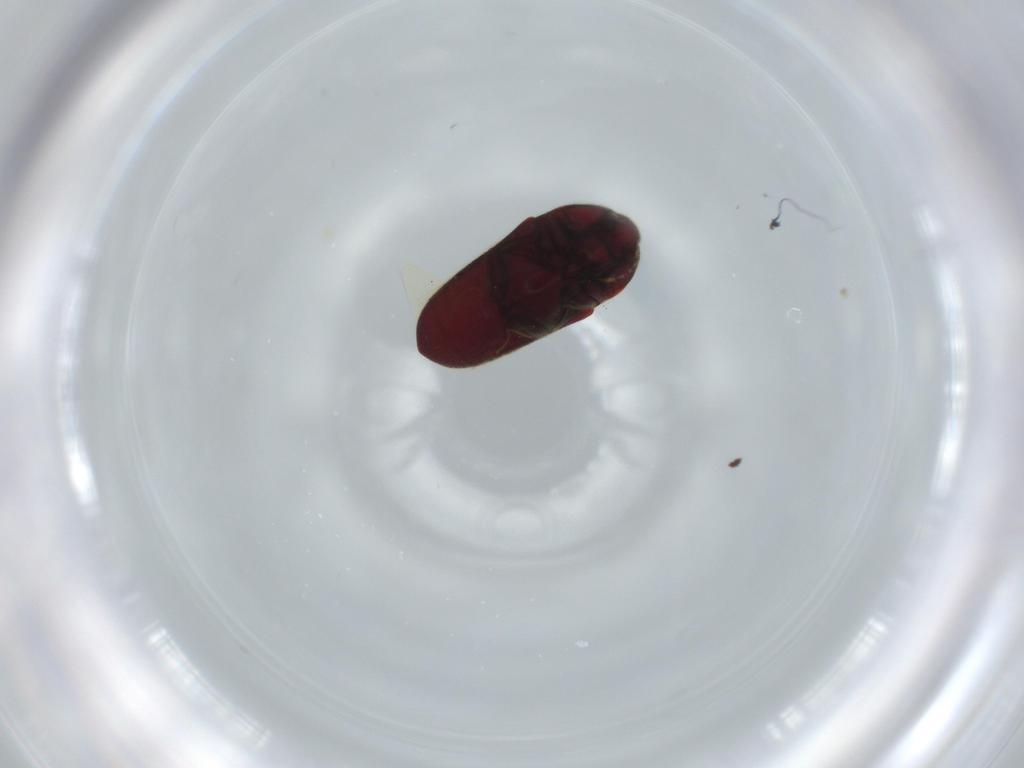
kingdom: Animalia
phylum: Arthropoda
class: Insecta
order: Coleoptera
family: Throscidae
